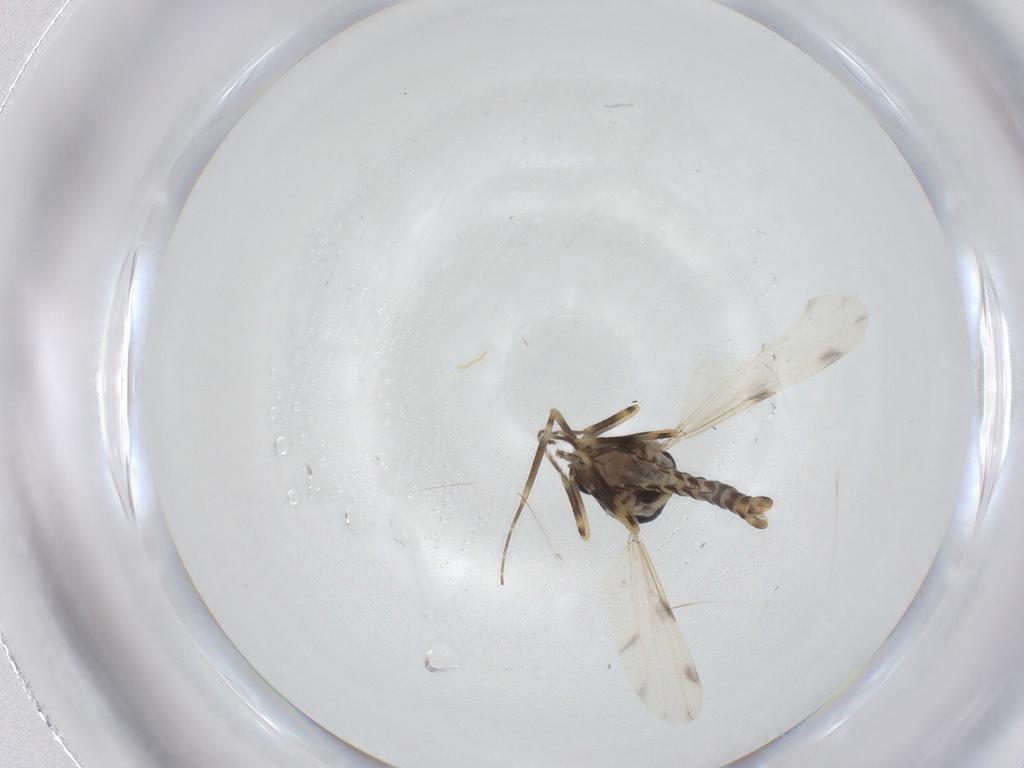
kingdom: Animalia
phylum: Arthropoda
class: Insecta
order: Diptera
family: Ceratopogonidae
